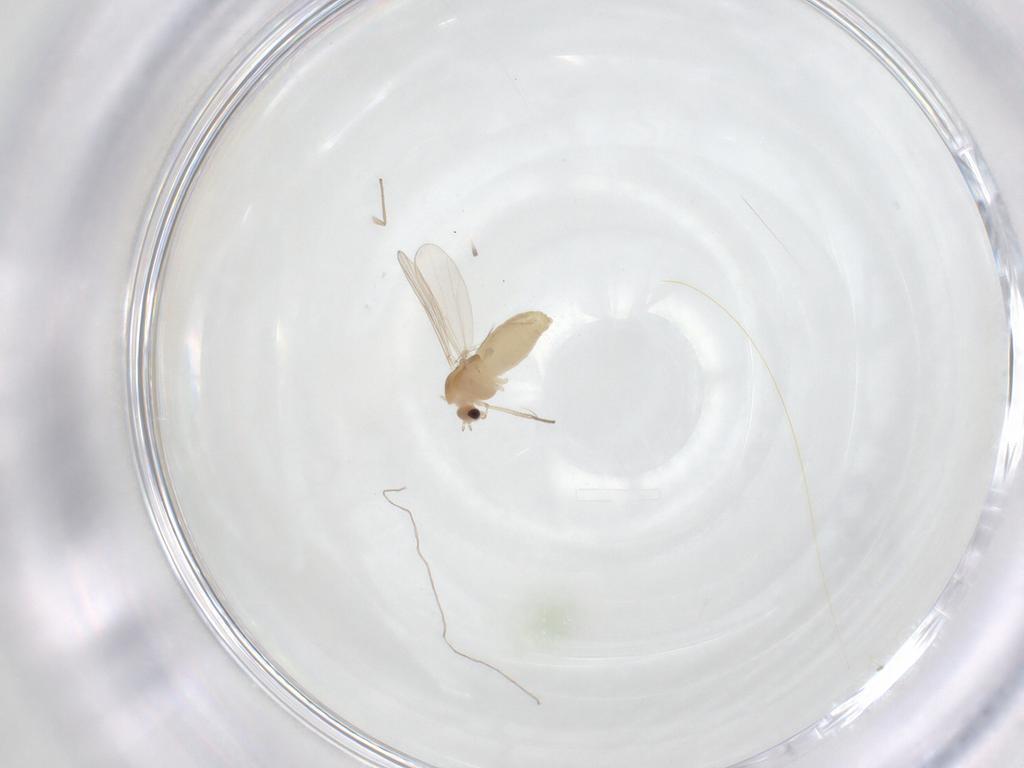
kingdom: Animalia
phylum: Arthropoda
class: Insecta
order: Diptera
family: Chironomidae
